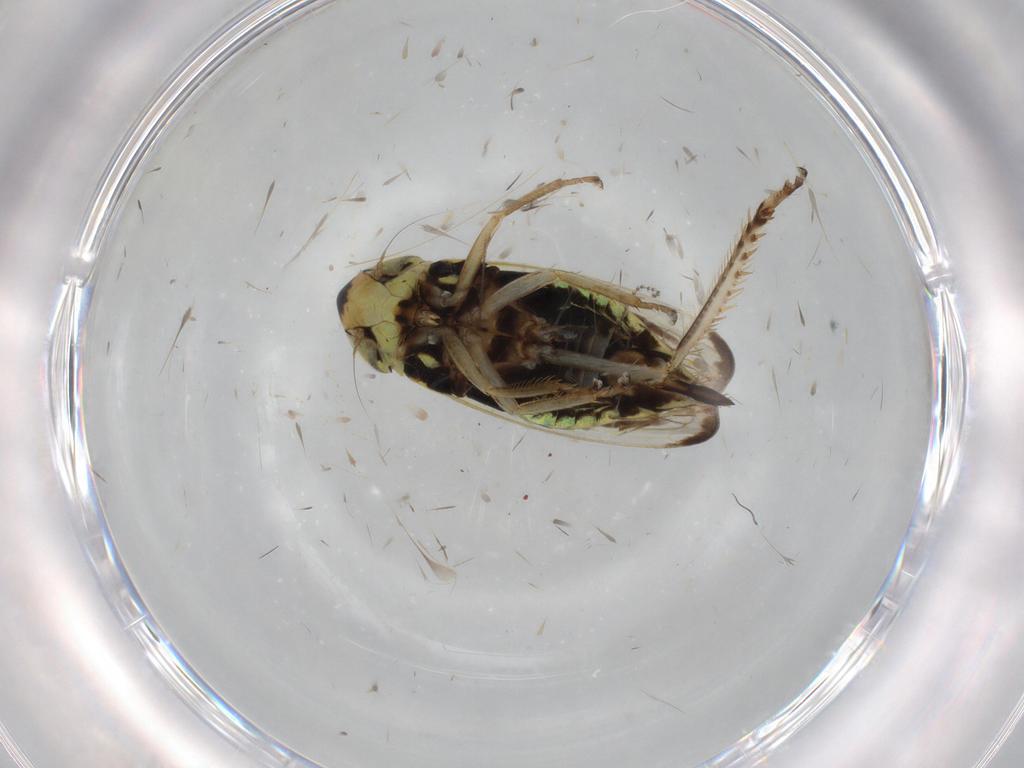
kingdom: Animalia
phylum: Arthropoda
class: Insecta
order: Hemiptera
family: Cicadellidae
